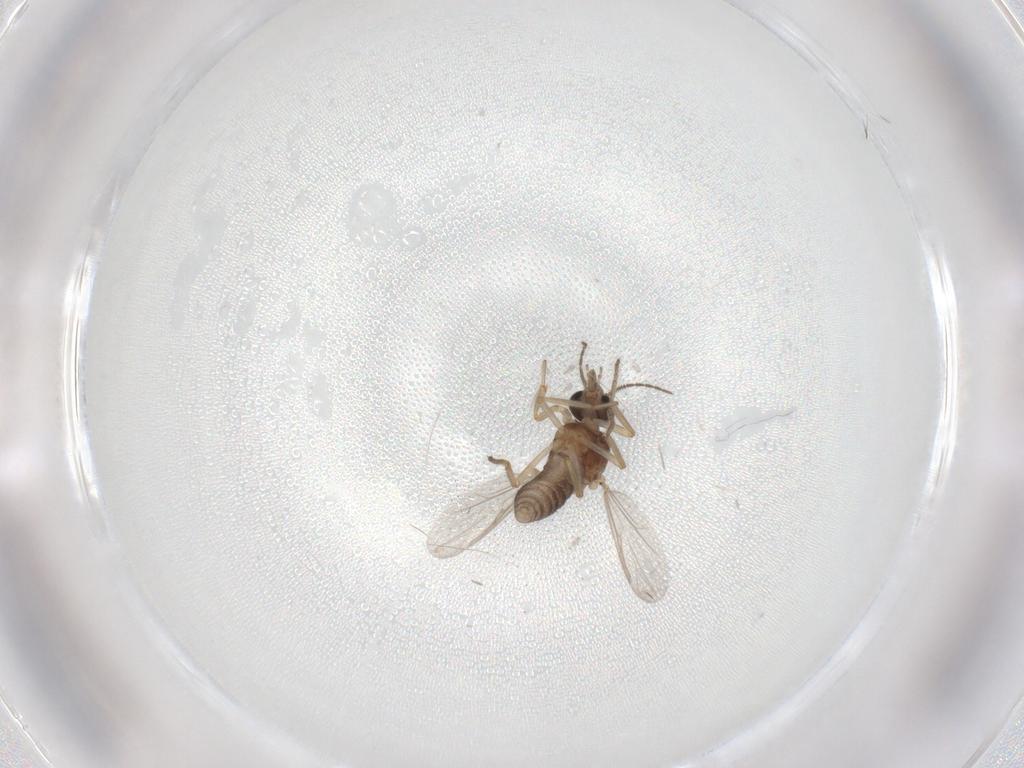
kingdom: Animalia
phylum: Arthropoda
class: Insecta
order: Diptera
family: Ceratopogonidae
